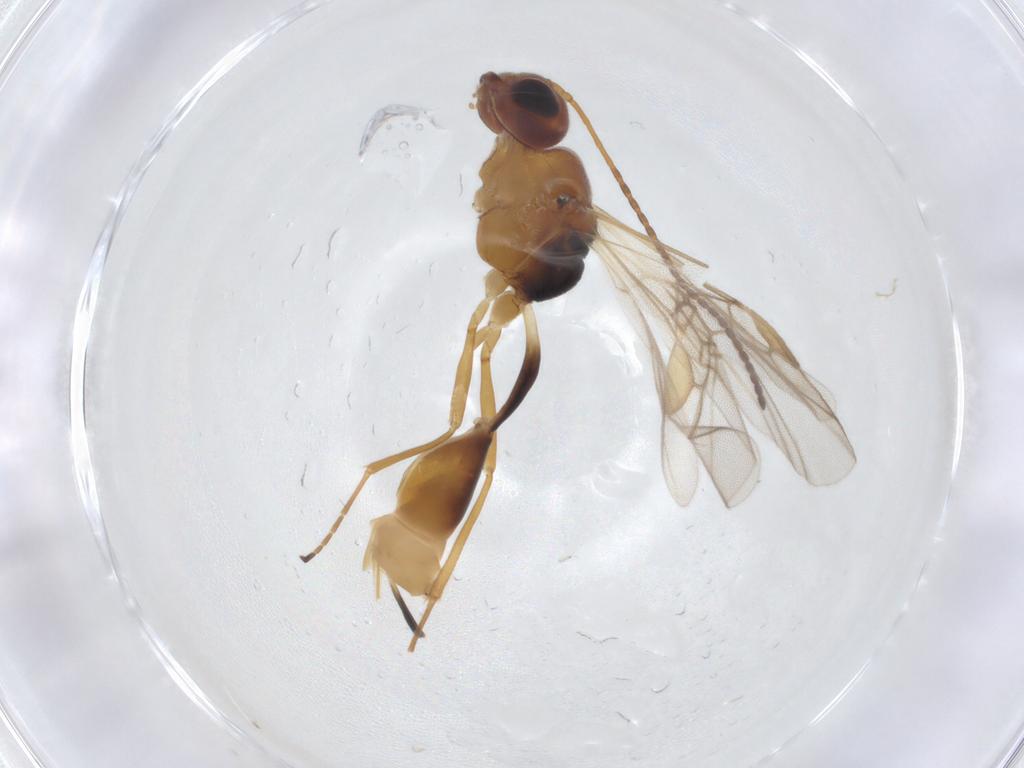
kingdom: Animalia
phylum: Arthropoda
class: Insecta
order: Hymenoptera
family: Braconidae
